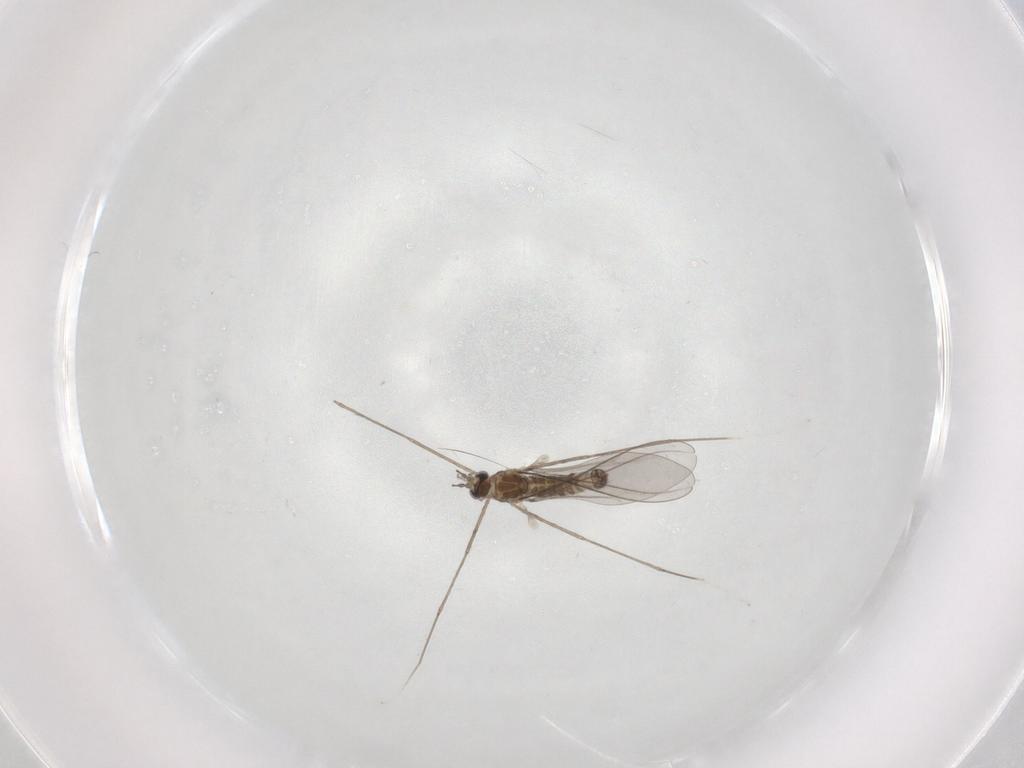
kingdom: Animalia
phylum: Arthropoda
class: Insecta
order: Diptera
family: Cecidomyiidae
